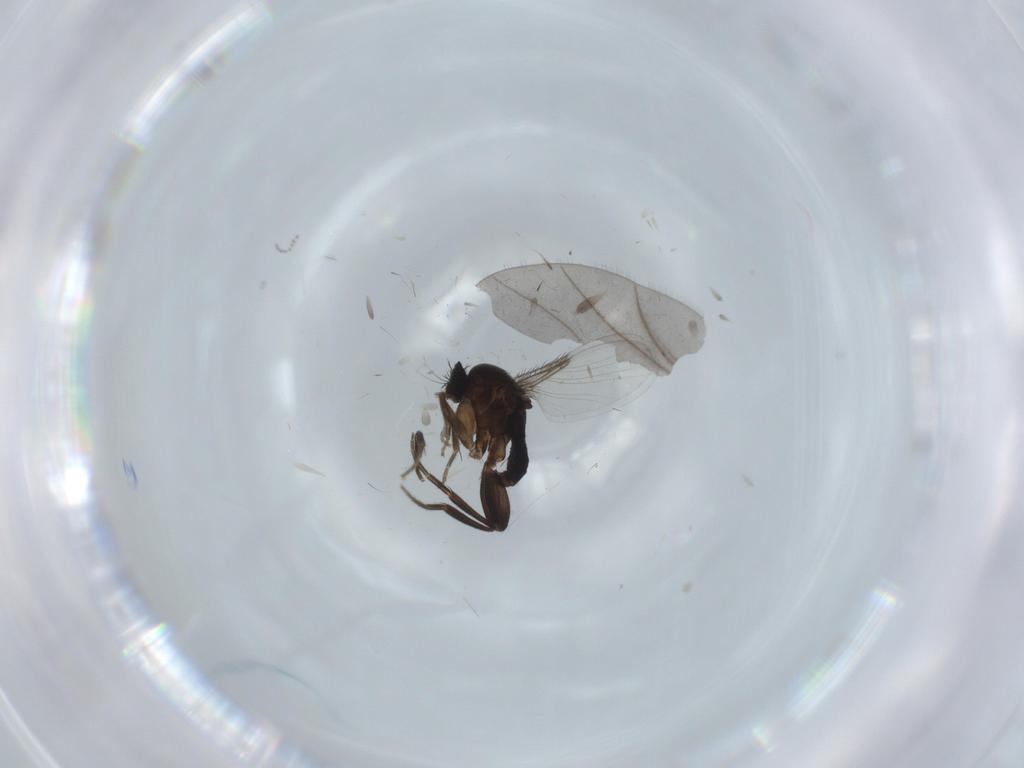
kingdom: Animalia
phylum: Arthropoda
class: Insecta
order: Diptera
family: Phoridae
